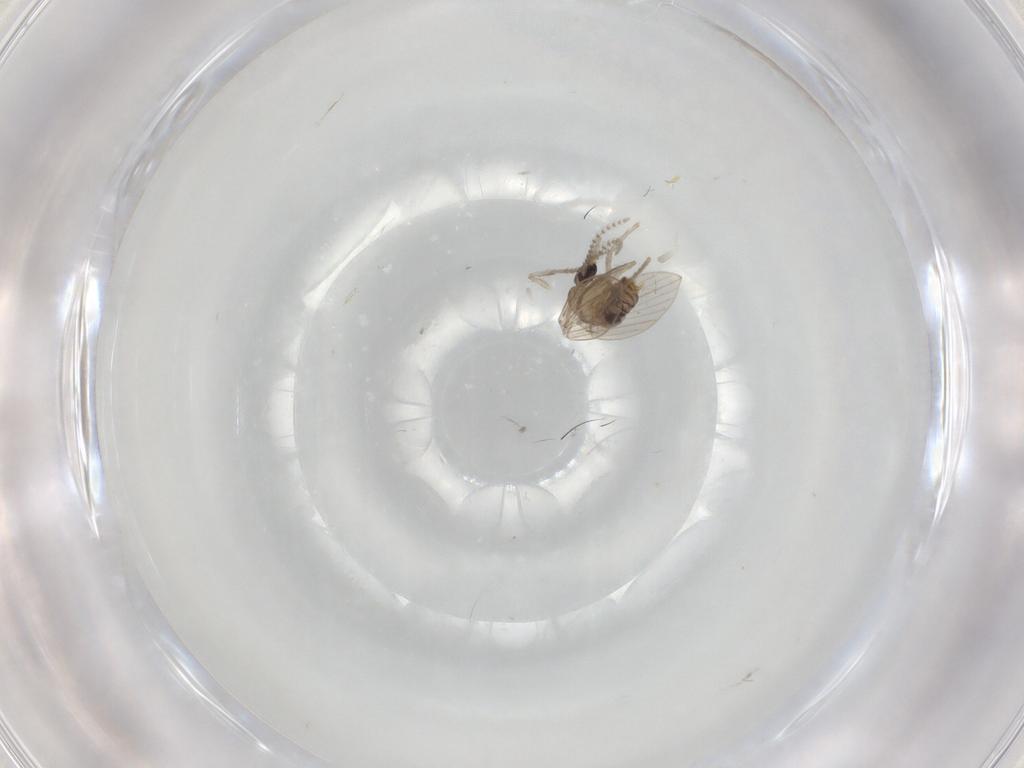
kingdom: Animalia
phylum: Arthropoda
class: Insecta
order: Diptera
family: Psychodidae
